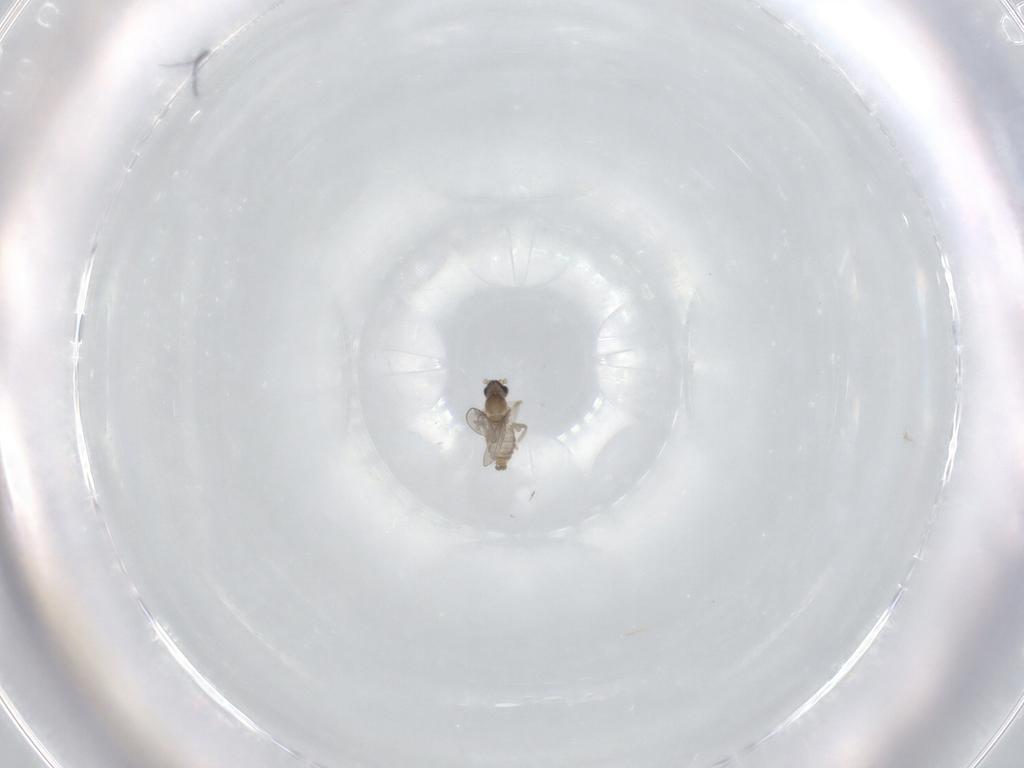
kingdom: Animalia
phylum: Arthropoda
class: Insecta
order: Diptera
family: Cecidomyiidae
